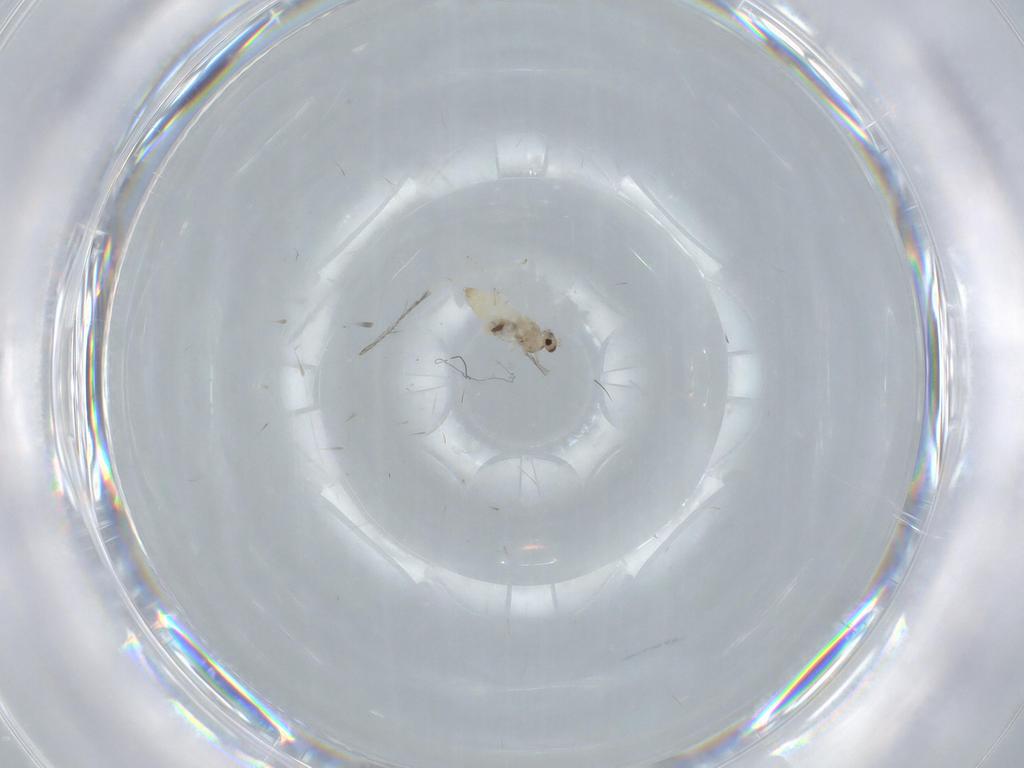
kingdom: Animalia
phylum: Arthropoda
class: Insecta
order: Diptera
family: Cecidomyiidae
